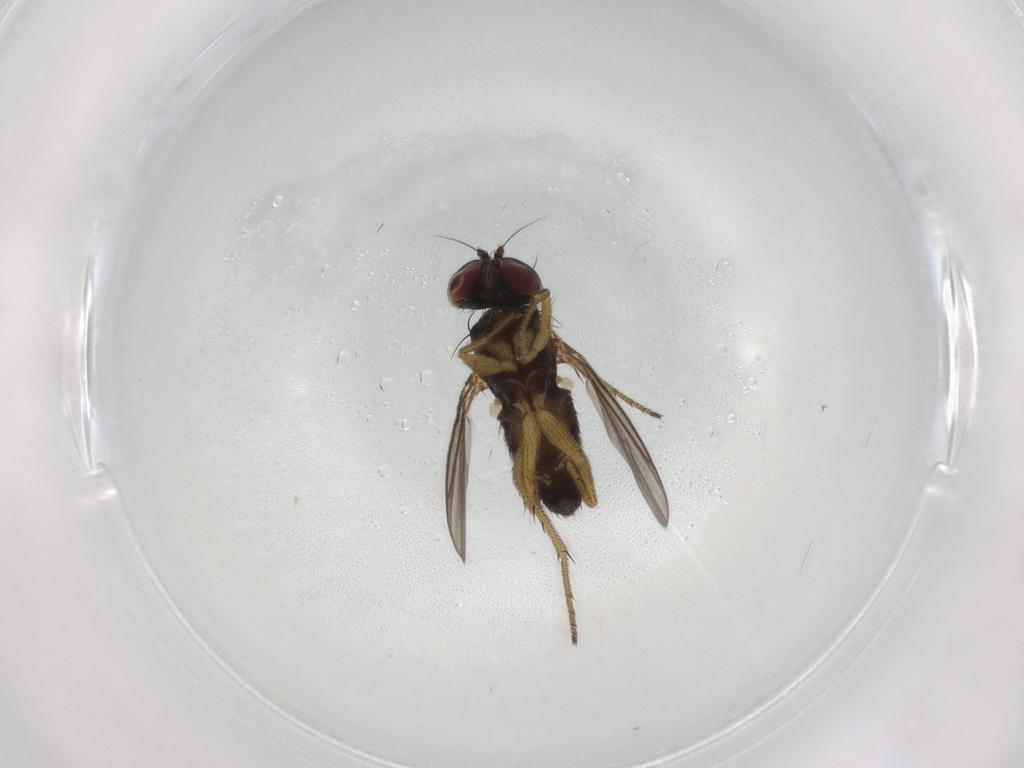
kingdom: Animalia
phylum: Arthropoda
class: Insecta
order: Diptera
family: Dolichopodidae
